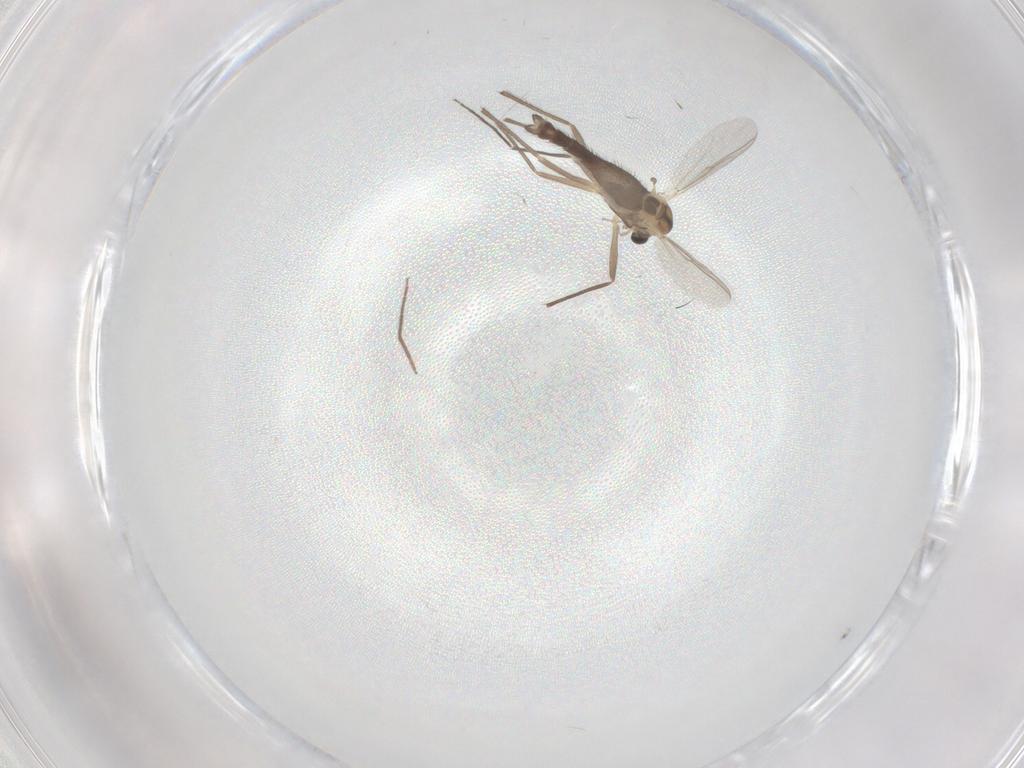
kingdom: Animalia
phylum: Arthropoda
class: Insecta
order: Diptera
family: Chironomidae
